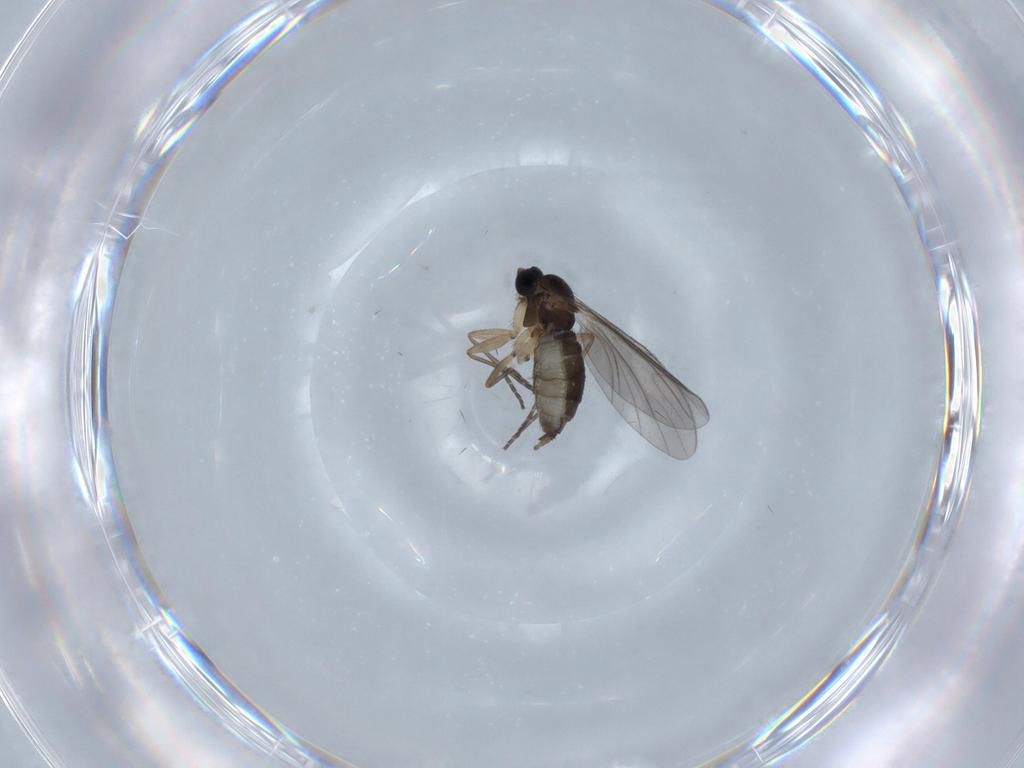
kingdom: Animalia
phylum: Arthropoda
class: Insecta
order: Diptera
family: Sciaridae
